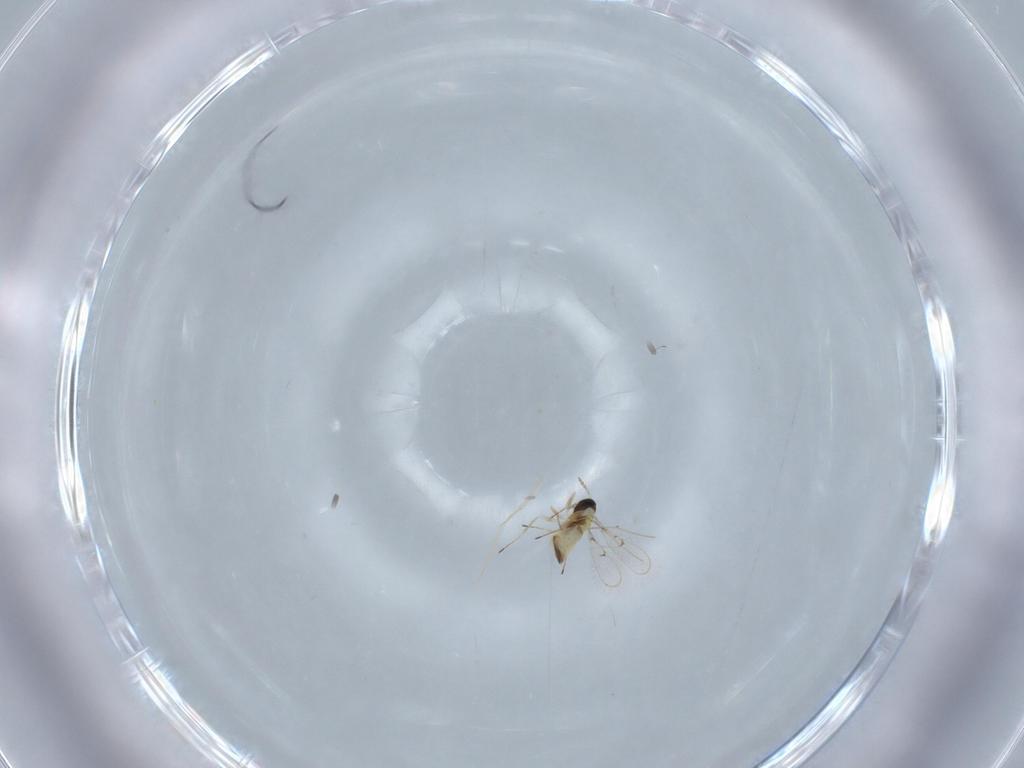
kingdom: Animalia
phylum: Arthropoda
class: Insecta
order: Hymenoptera
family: Trichogrammatidae
